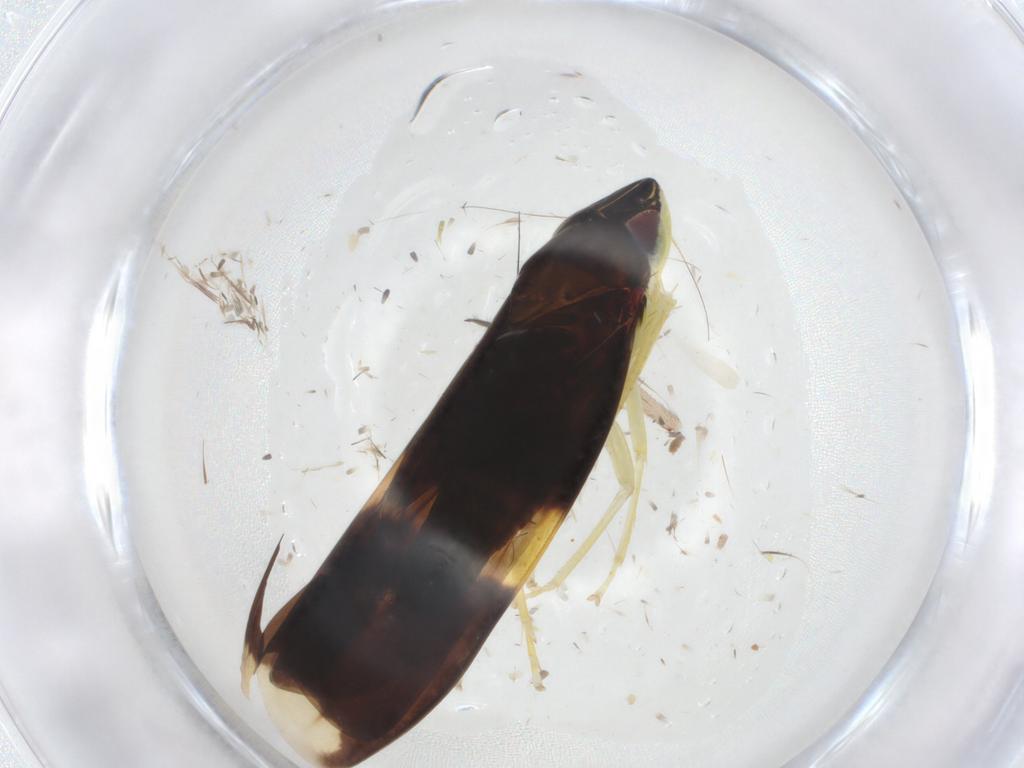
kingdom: Animalia
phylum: Arthropoda
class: Insecta
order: Hemiptera
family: Cicadellidae
